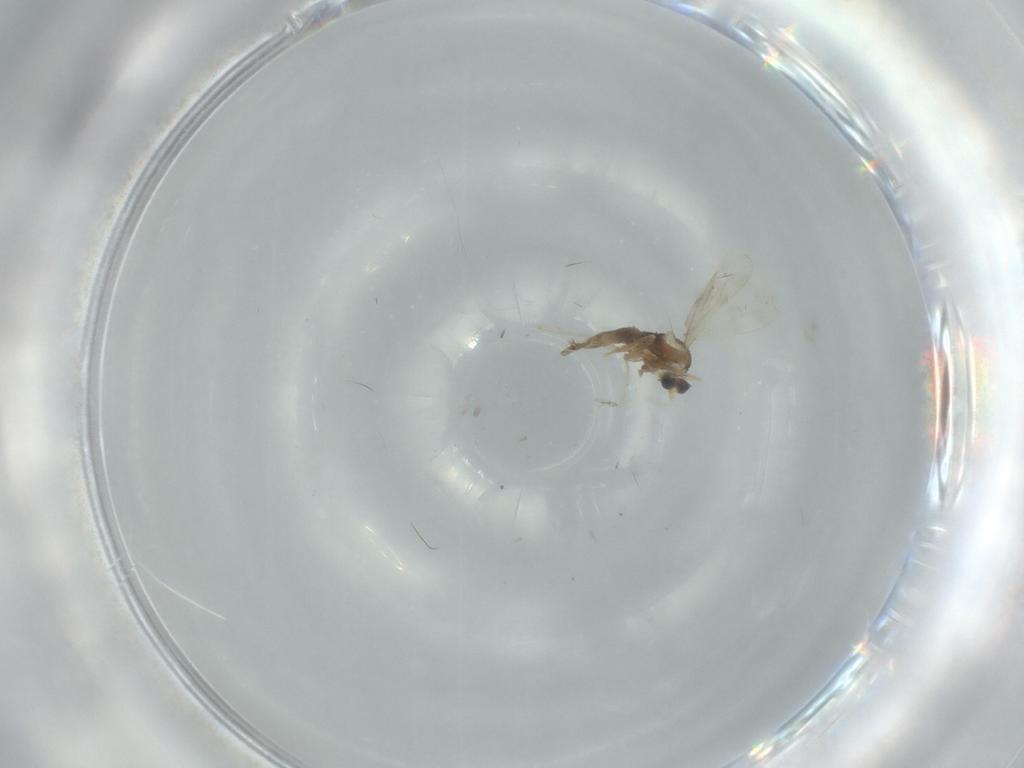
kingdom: Animalia
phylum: Arthropoda
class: Insecta
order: Diptera
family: Cecidomyiidae
